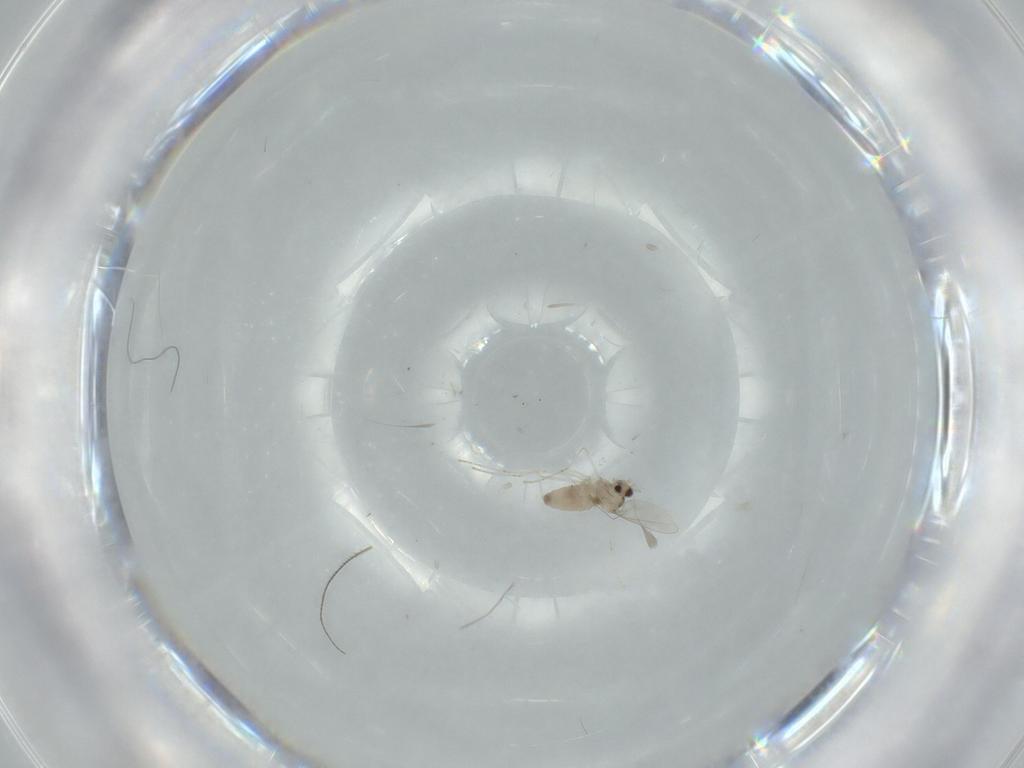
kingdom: Animalia
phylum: Arthropoda
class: Insecta
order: Diptera
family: Cecidomyiidae
